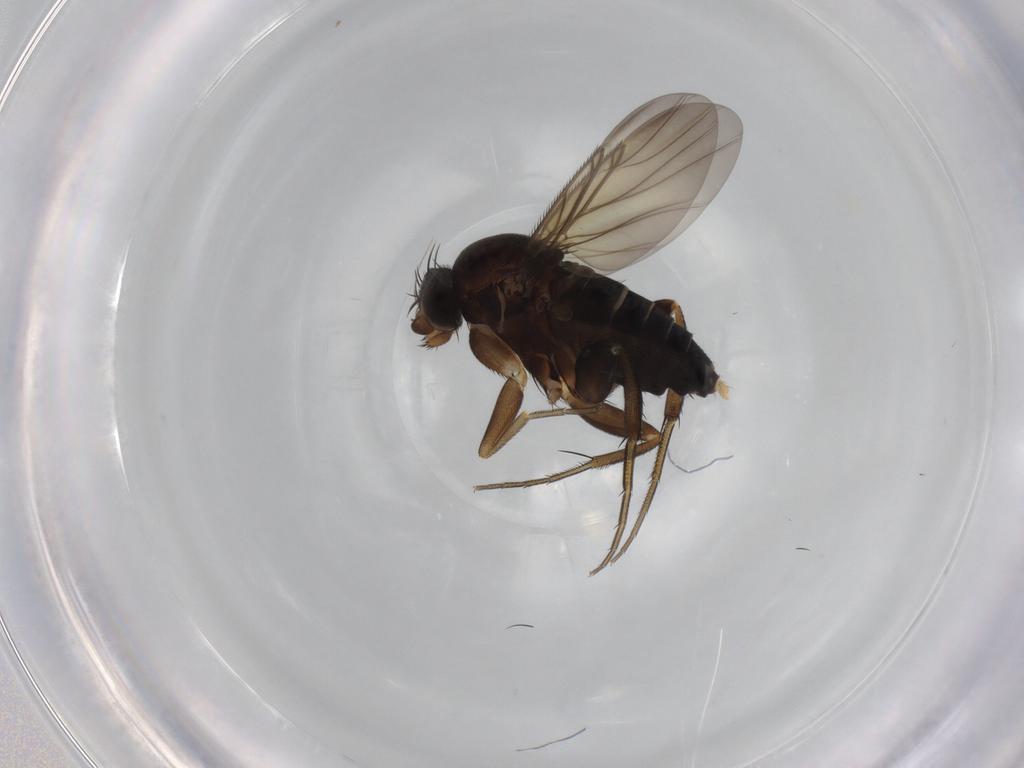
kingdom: Animalia
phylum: Arthropoda
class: Insecta
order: Diptera
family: Phoridae
